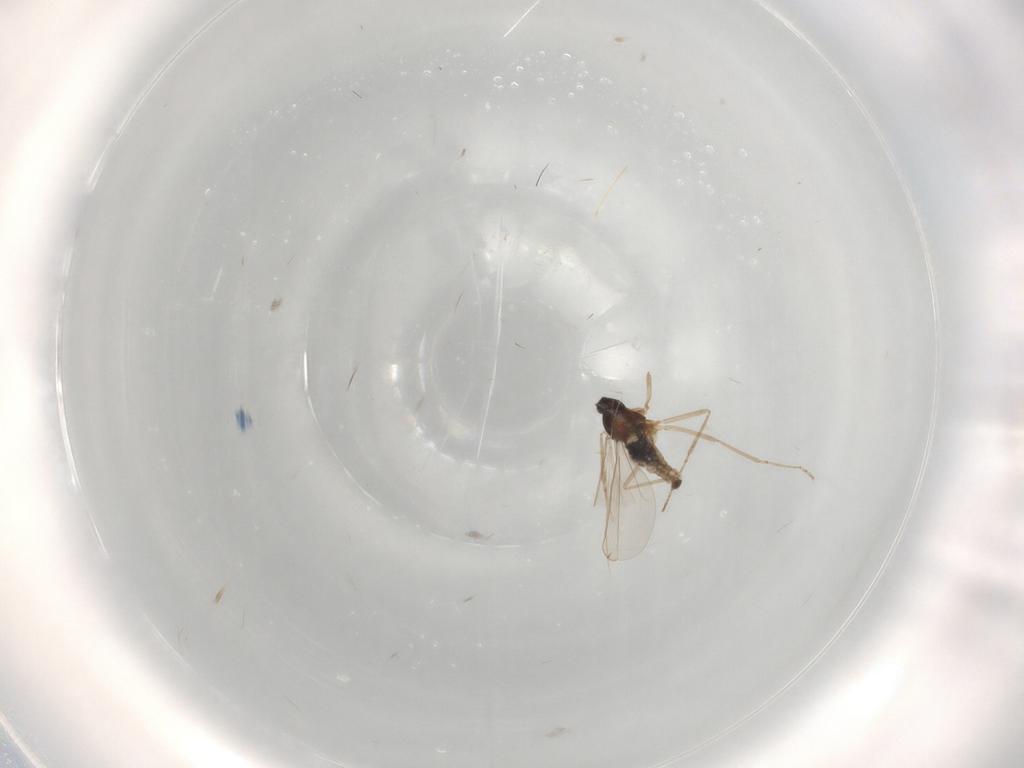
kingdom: Animalia
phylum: Arthropoda
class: Insecta
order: Diptera
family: Cecidomyiidae
